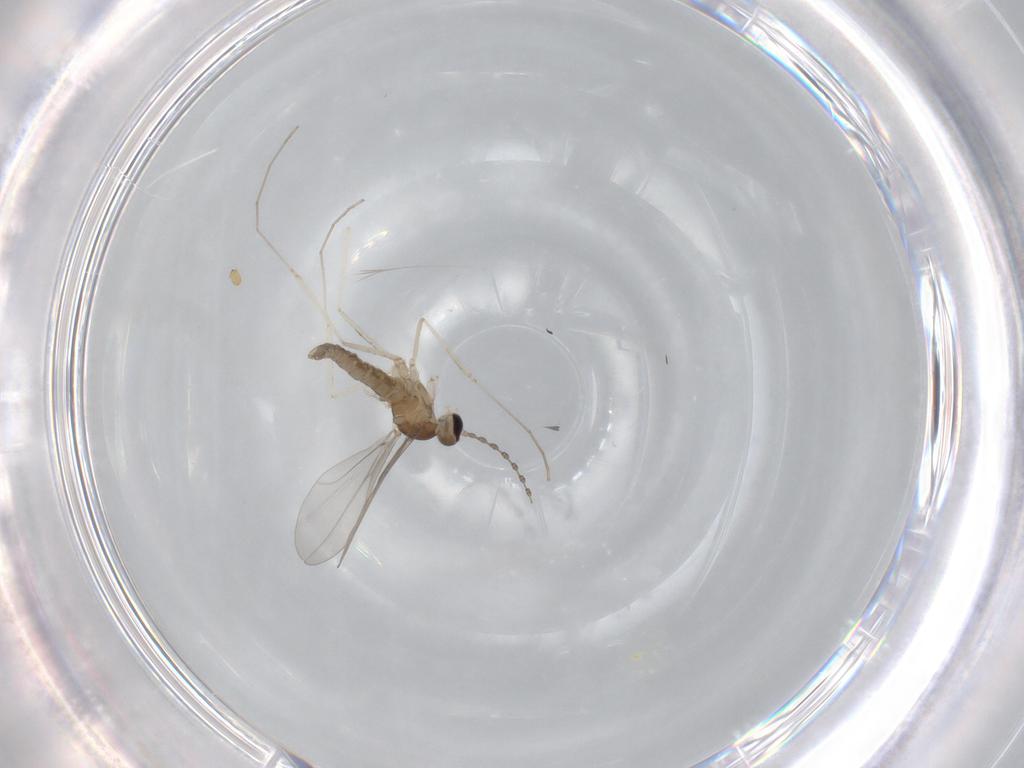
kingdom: Animalia
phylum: Arthropoda
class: Insecta
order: Diptera
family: Cecidomyiidae
